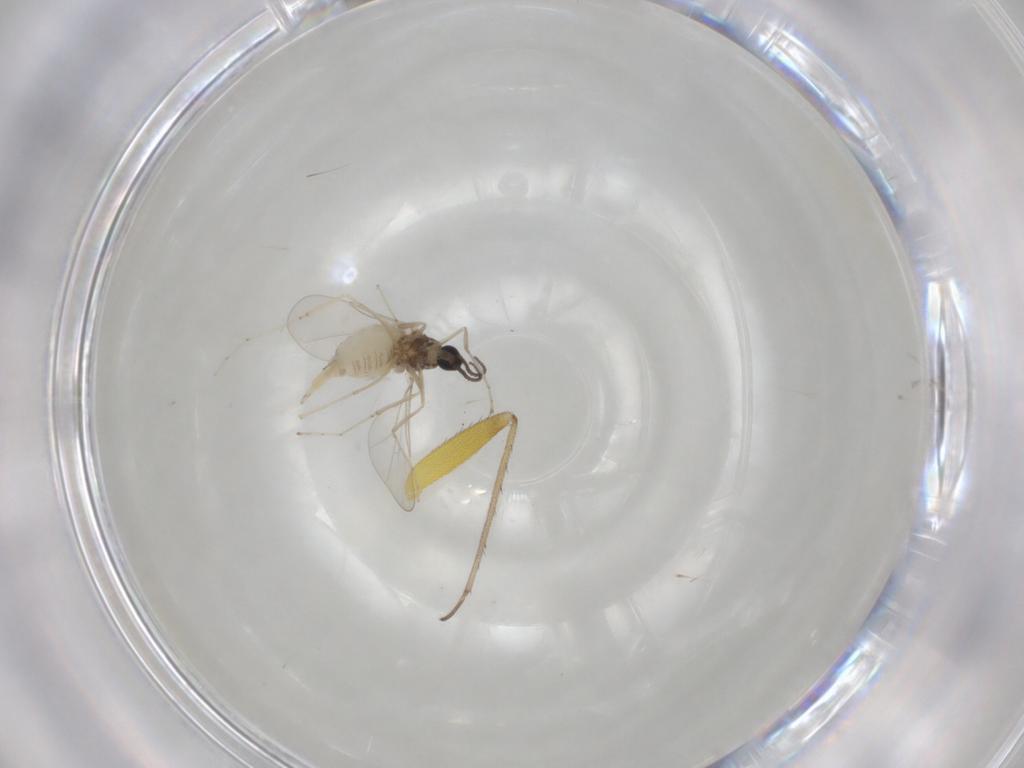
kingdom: Animalia
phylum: Arthropoda
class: Insecta
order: Diptera
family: Cecidomyiidae
